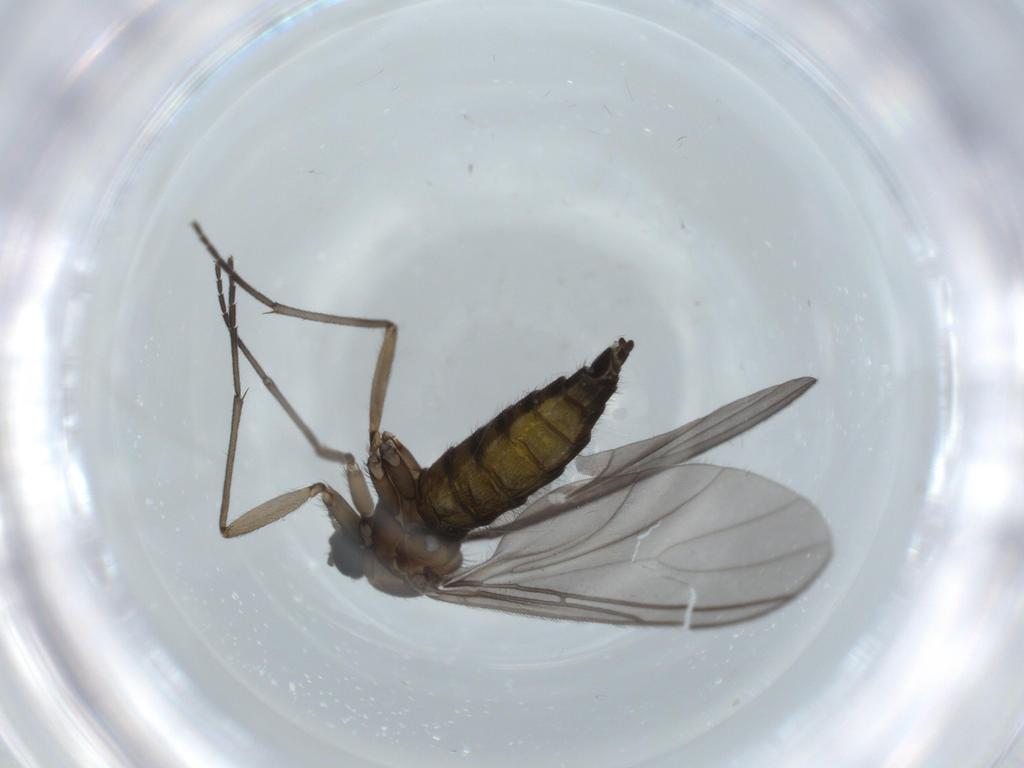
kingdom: Animalia
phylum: Arthropoda
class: Insecta
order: Diptera
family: Sciaridae
